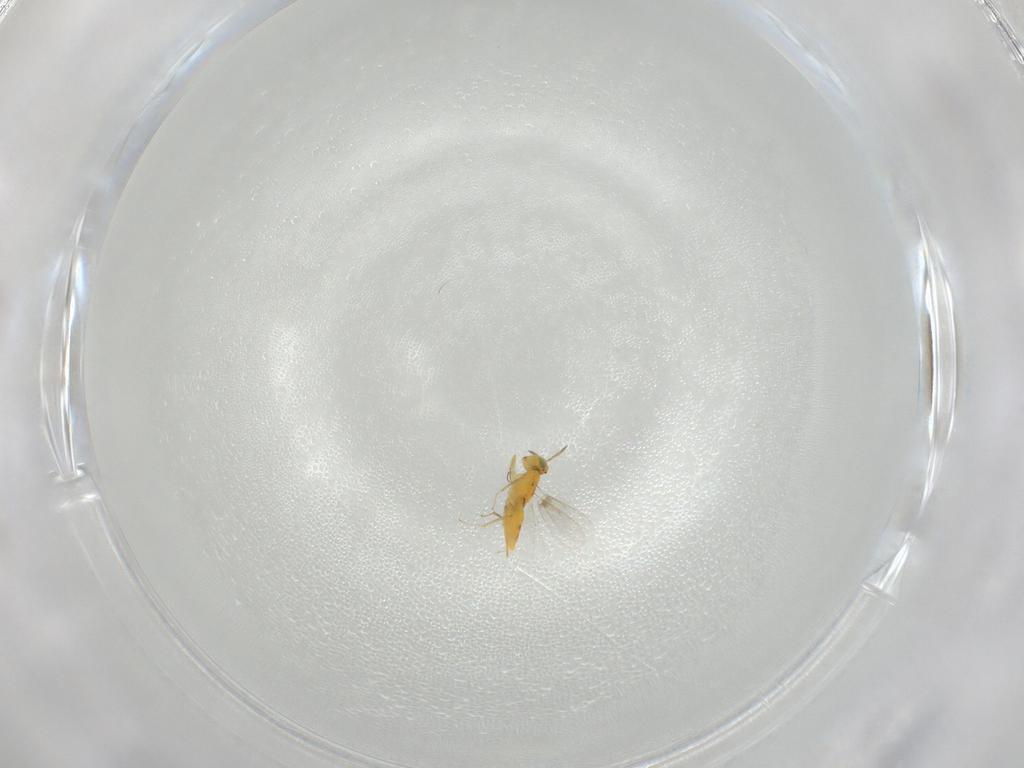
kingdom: Animalia
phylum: Arthropoda
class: Insecta
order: Hymenoptera
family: Aphelinidae
